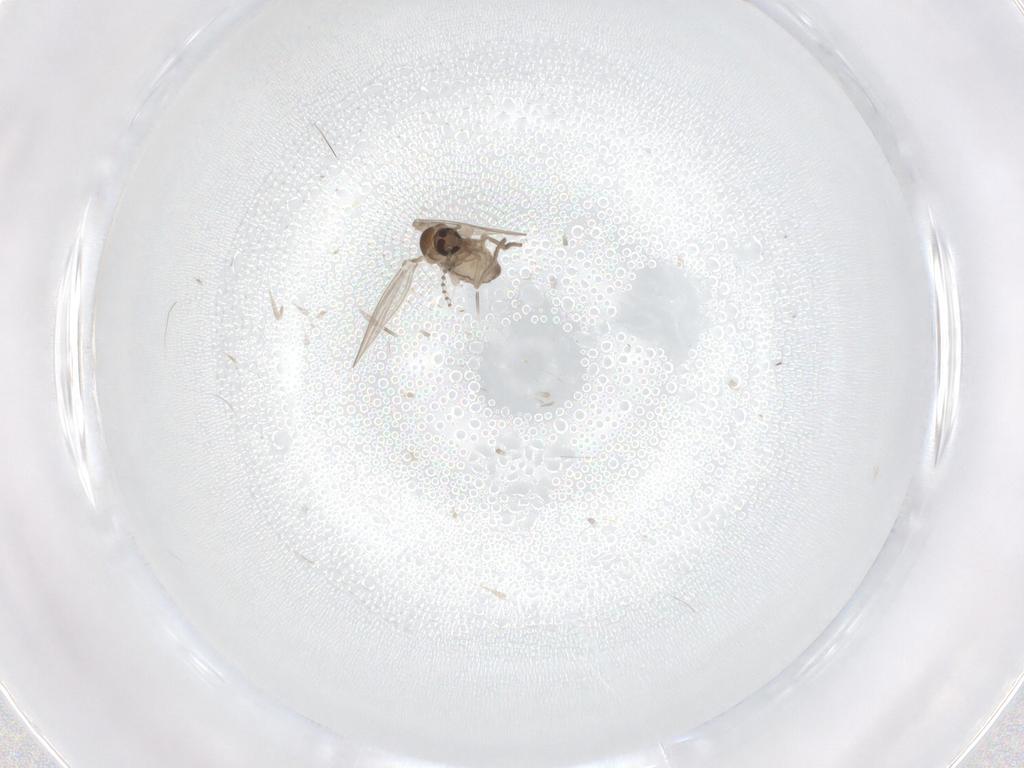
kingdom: Animalia
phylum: Arthropoda
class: Insecta
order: Diptera
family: Psychodidae
